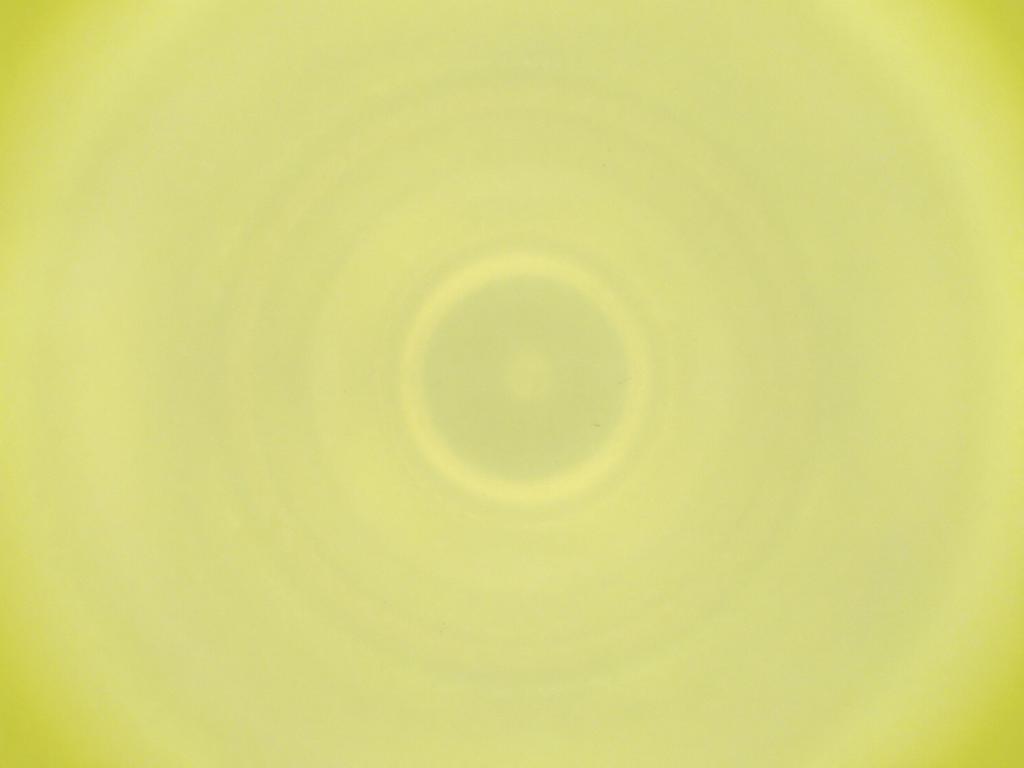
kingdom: Animalia
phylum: Arthropoda
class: Insecta
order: Diptera
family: Cecidomyiidae
